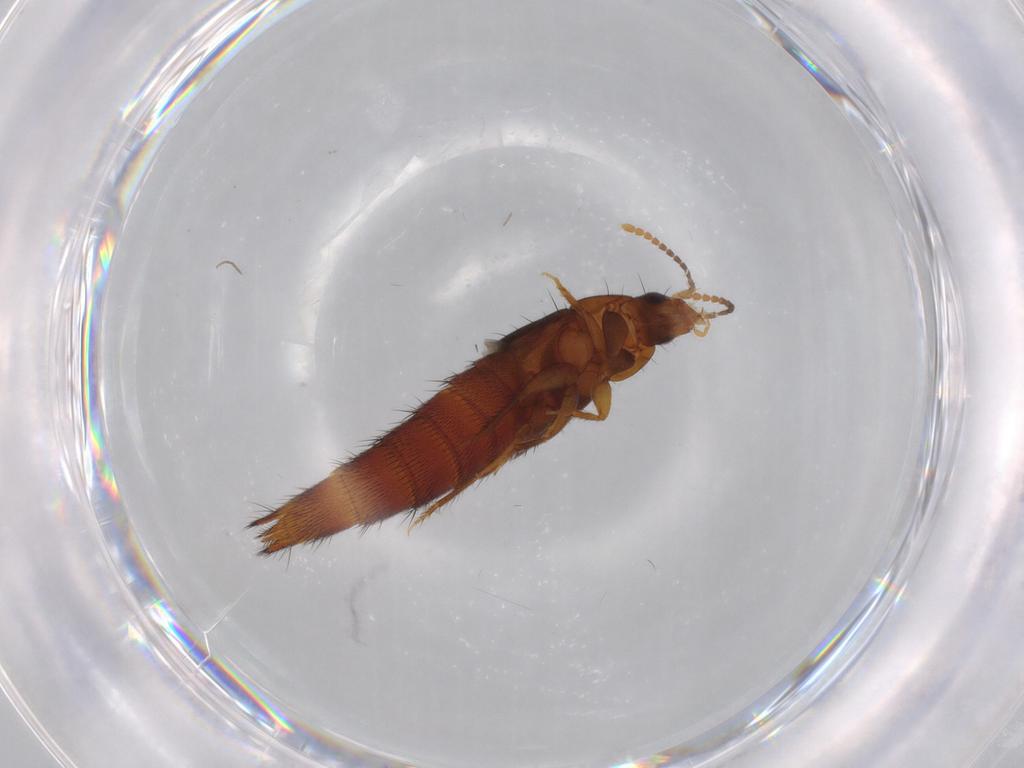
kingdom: Animalia
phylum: Arthropoda
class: Insecta
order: Coleoptera
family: Staphylinidae
